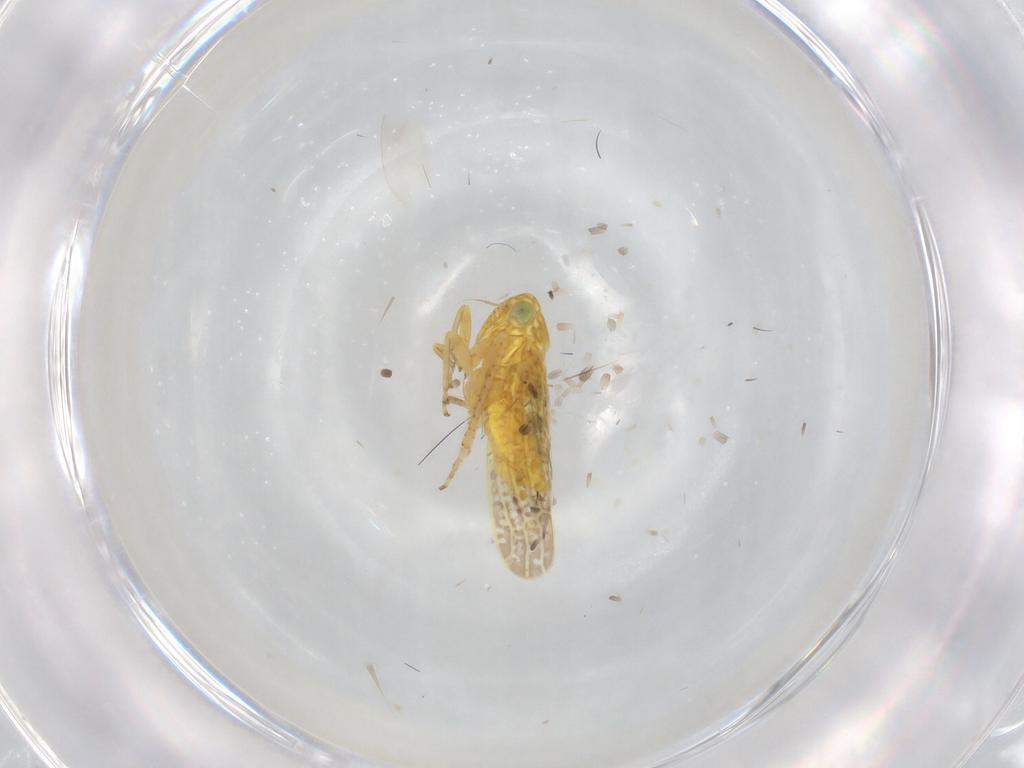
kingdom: Animalia
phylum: Arthropoda
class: Insecta
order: Hemiptera
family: Cicadellidae
